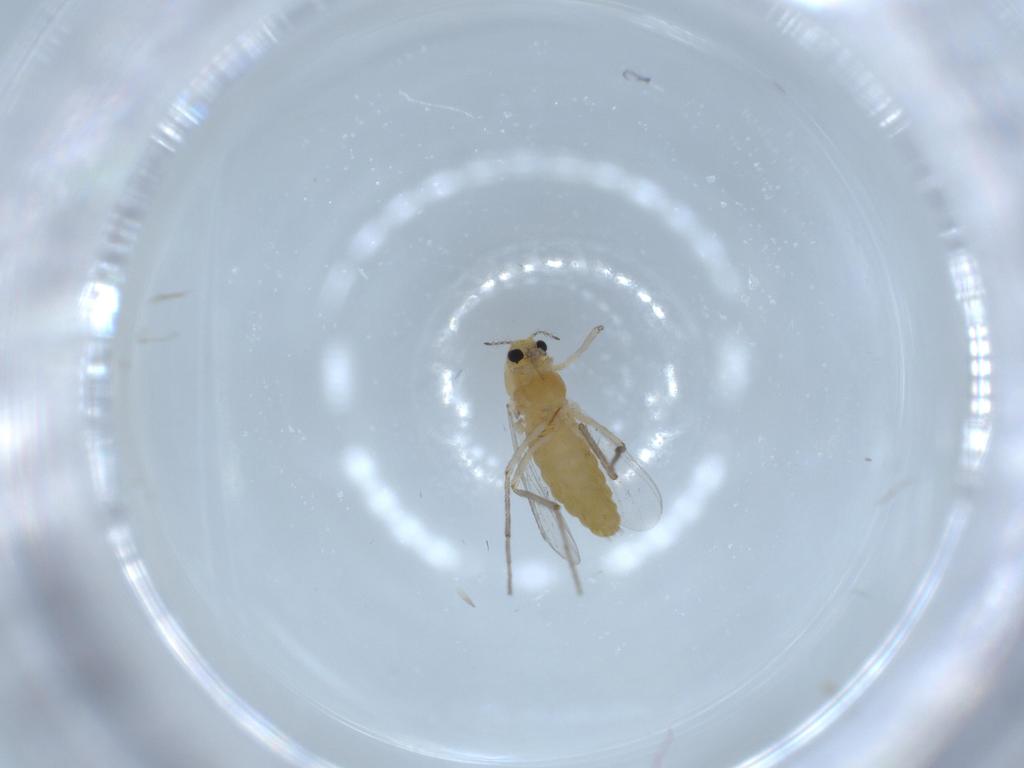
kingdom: Animalia
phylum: Arthropoda
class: Insecta
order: Diptera
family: Chironomidae
